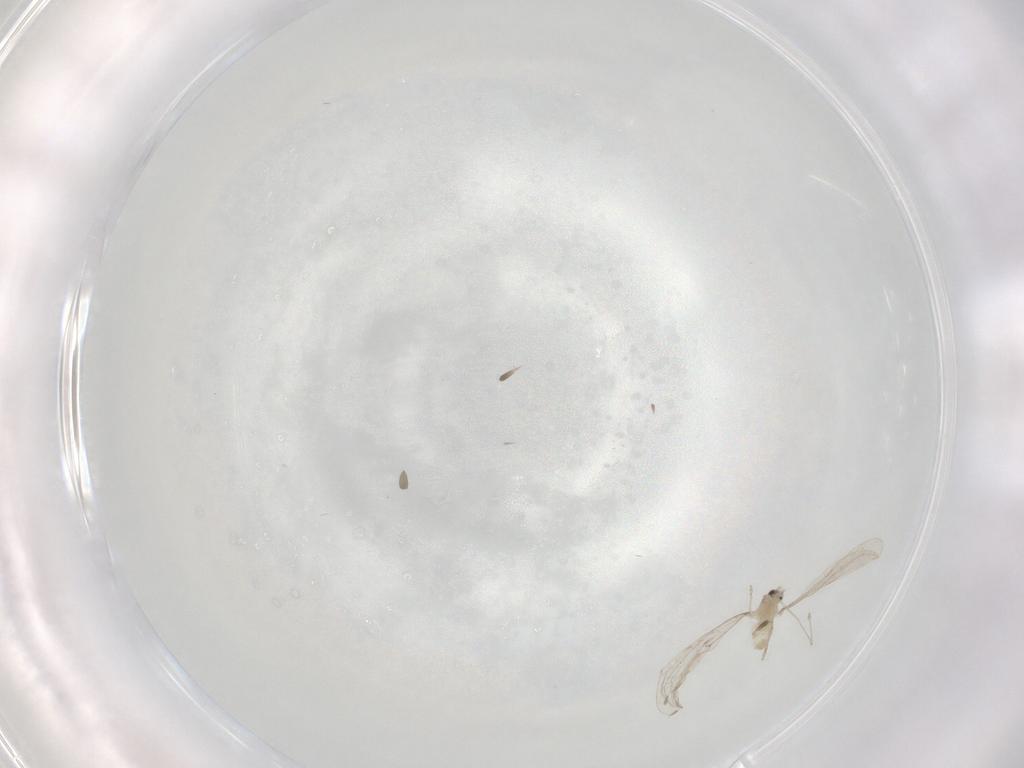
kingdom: Animalia
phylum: Arthropoda
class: Insecta
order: Diptera
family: Cecidomyiidae
